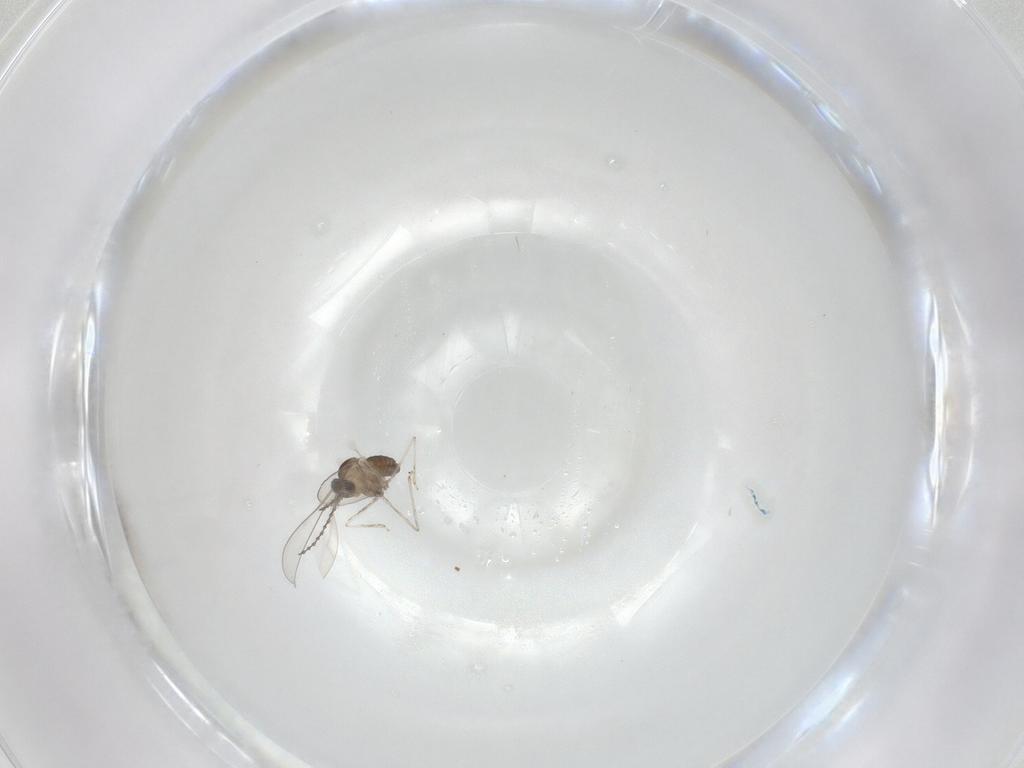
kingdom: Animalia
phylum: Arthropoda
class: Insecta
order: Diptera
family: Cecidomyiidae
